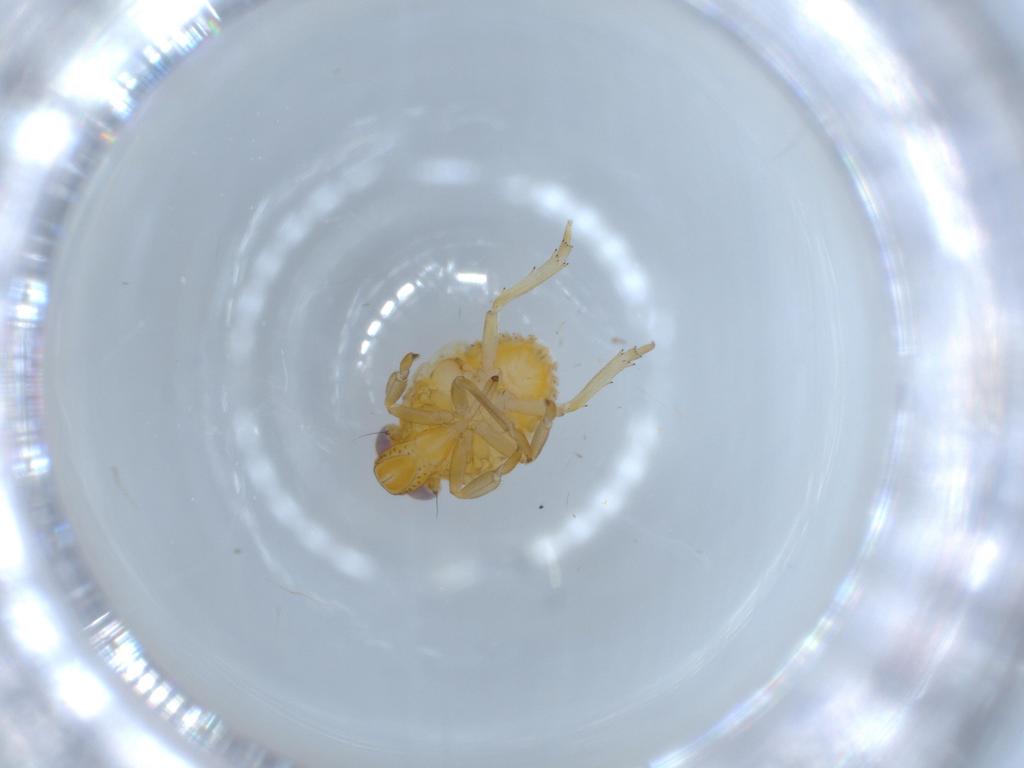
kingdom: Animalia
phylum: Arthropoda
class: Insecta
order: Hemiptera
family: Issidae
